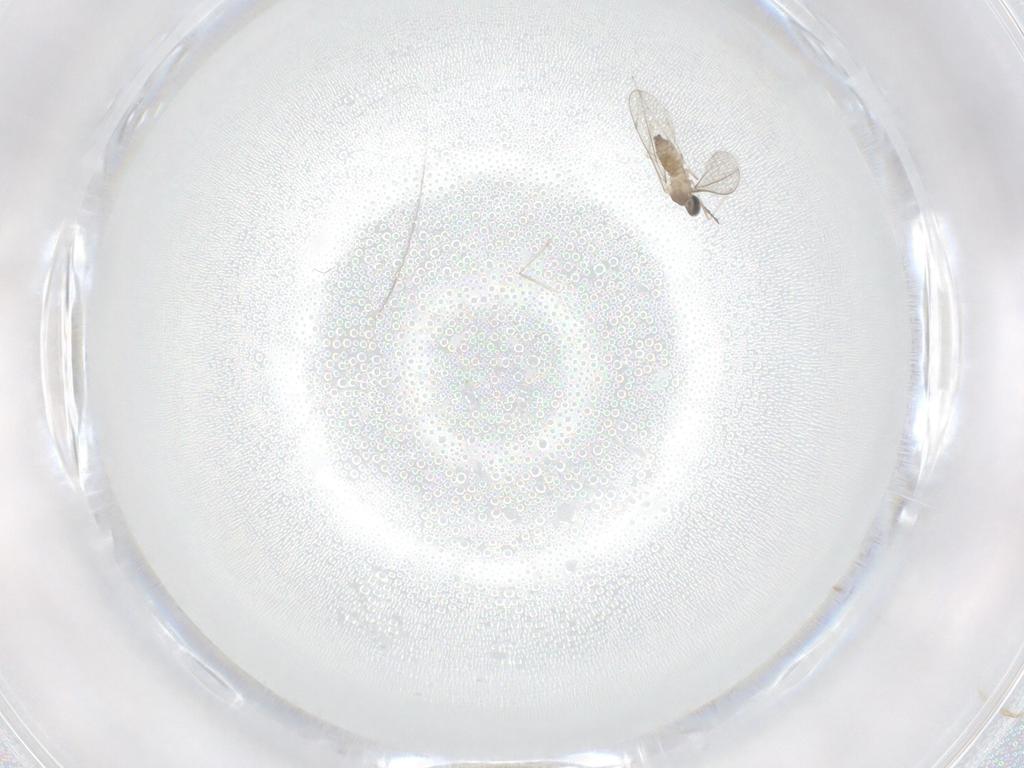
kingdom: Animalia
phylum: Arthropoda
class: Insecta
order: Diptera
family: Cecidomyiidae
